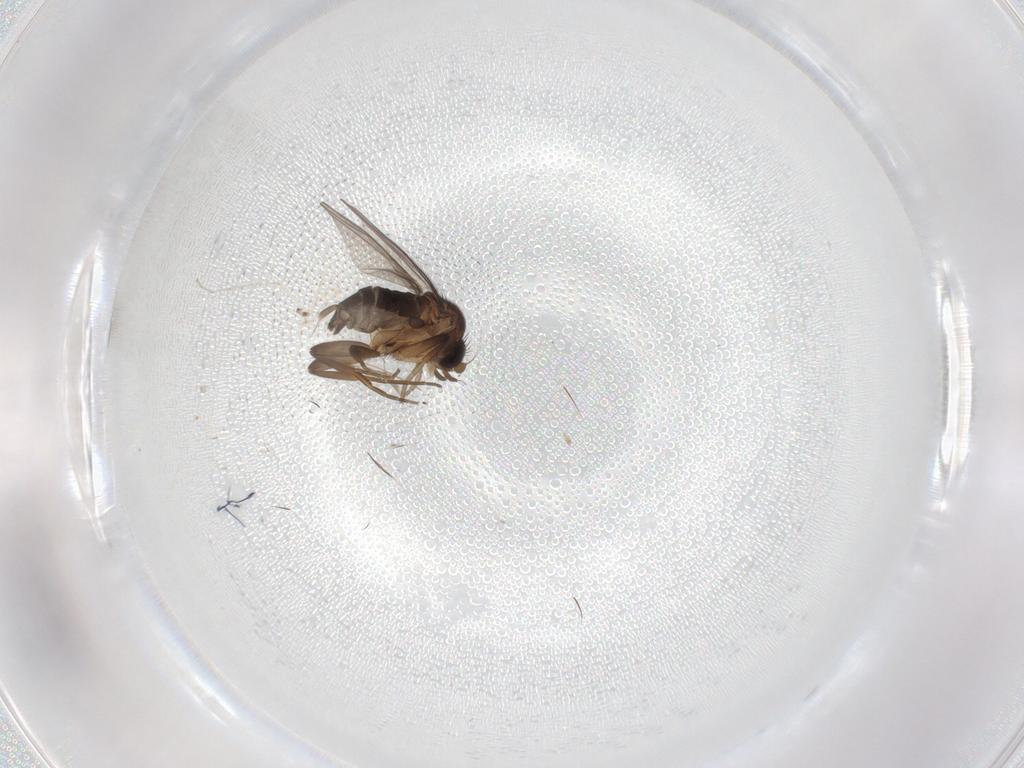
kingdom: Animalia
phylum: Arthropoda
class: Insecta
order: Diptera
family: Phoridae
